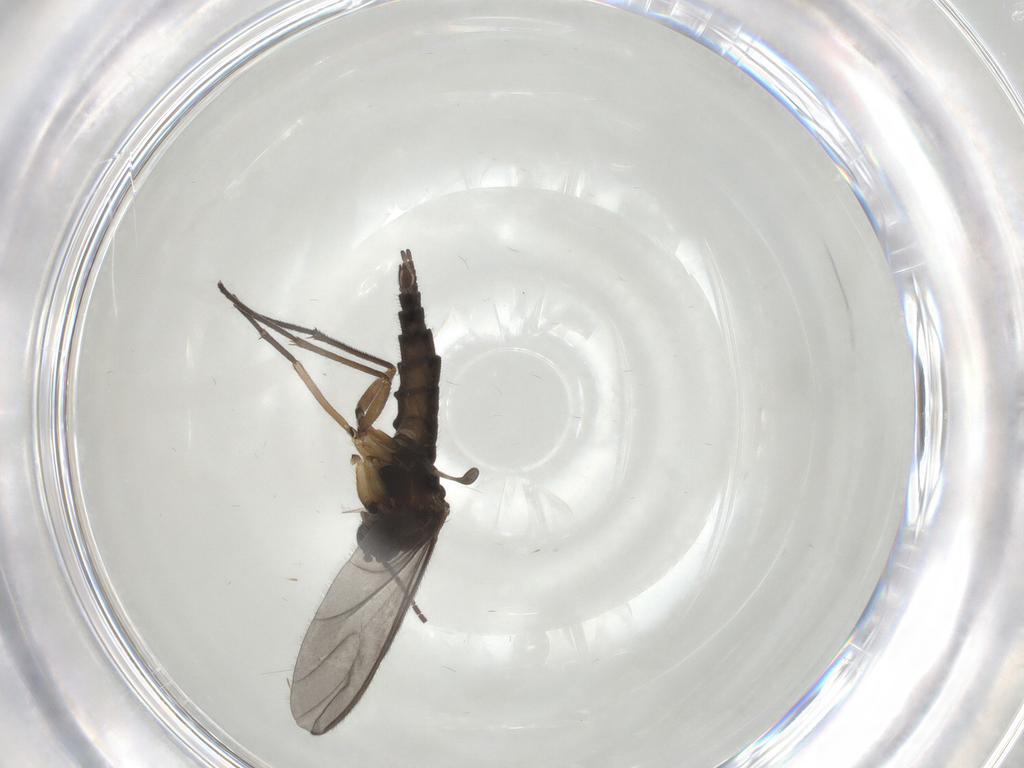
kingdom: Animalia
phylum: Arthropoda
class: Insecta
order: Diptera
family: Sciaridae
